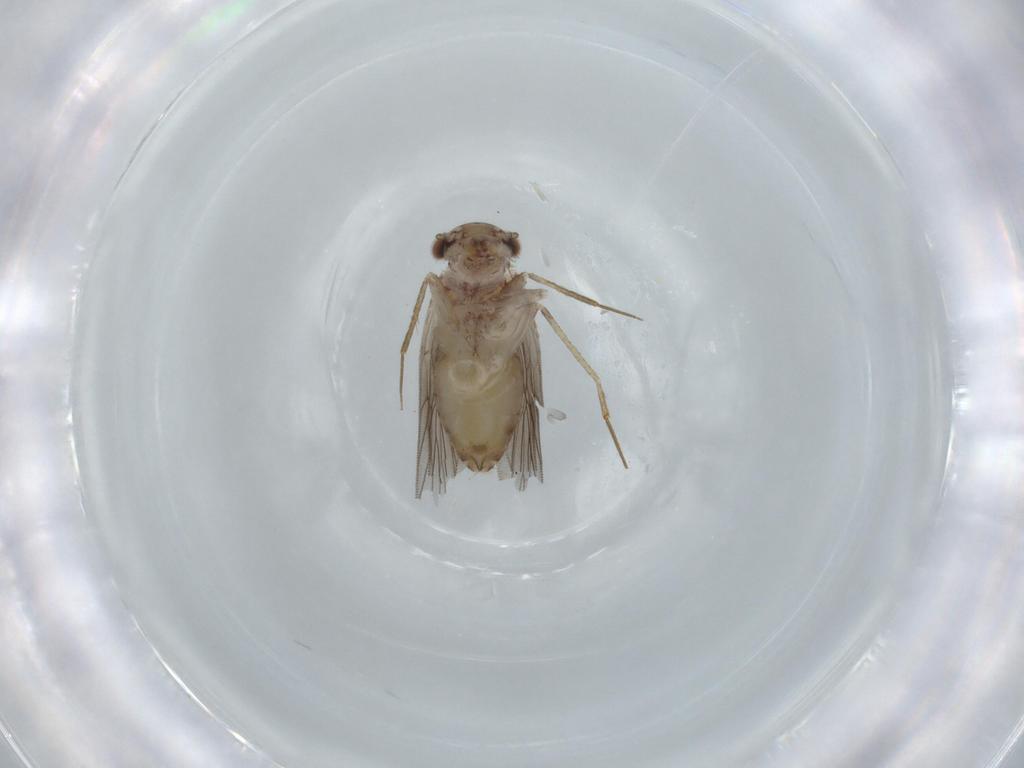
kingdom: Animalia
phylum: Arthropoda
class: Insecta
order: Psocodea
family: Lepidopsocidae
